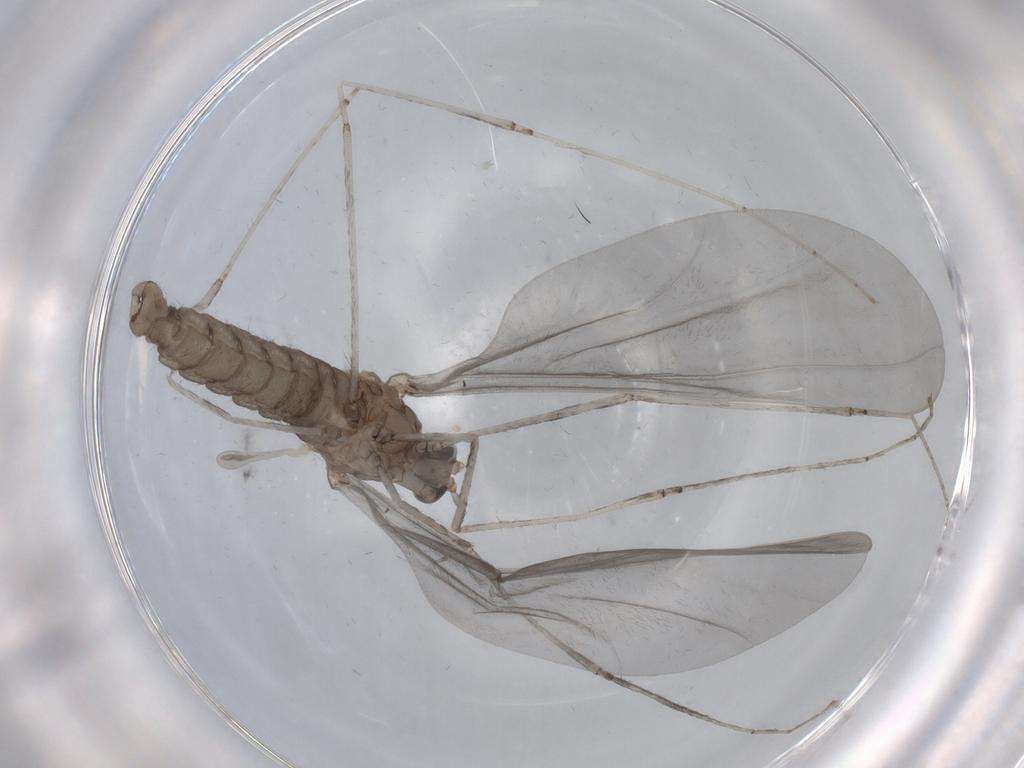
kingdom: Animalia
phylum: Arthropoda
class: Insecta
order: Diptera
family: Cecidomyiidae
